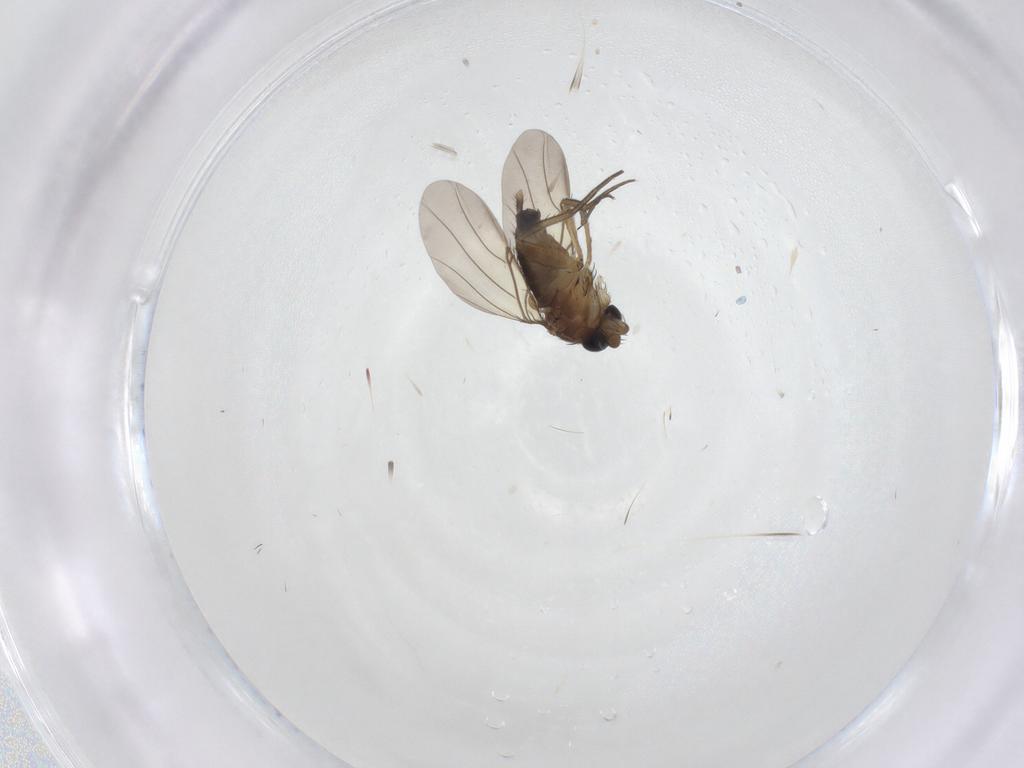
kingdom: Animalia
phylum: Arthropoda
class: Insecta
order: Diptera
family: Phoridae
